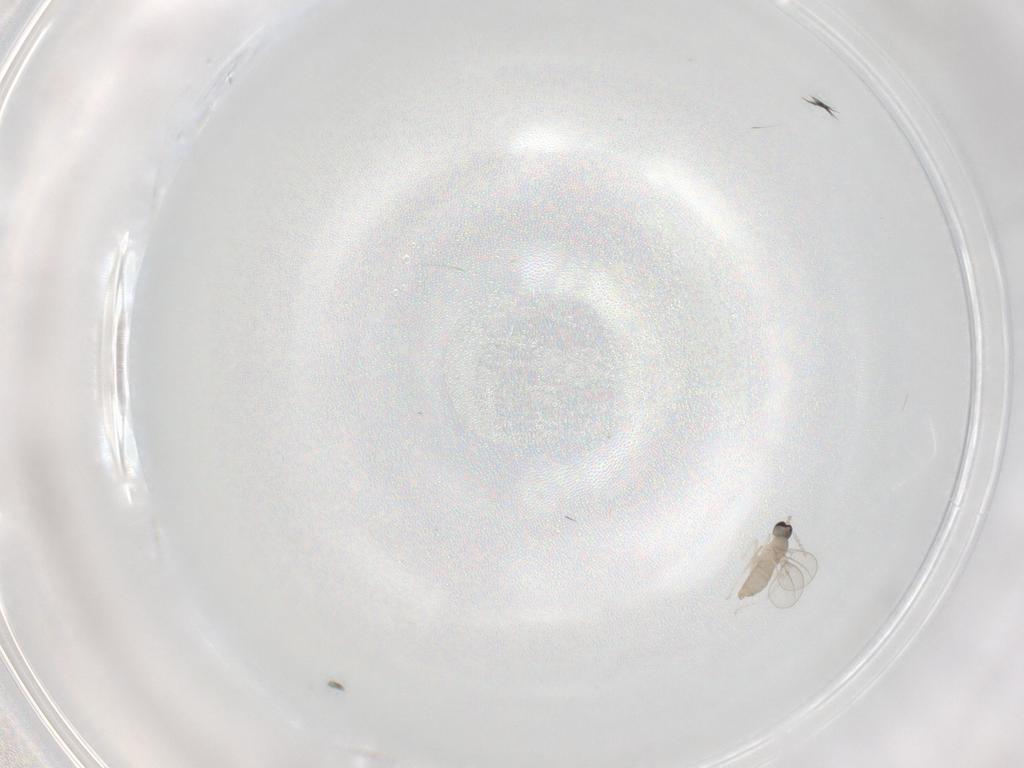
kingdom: Animalia
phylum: Arthropoda
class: Insecta
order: Diptera
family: Cecidomyiidae
